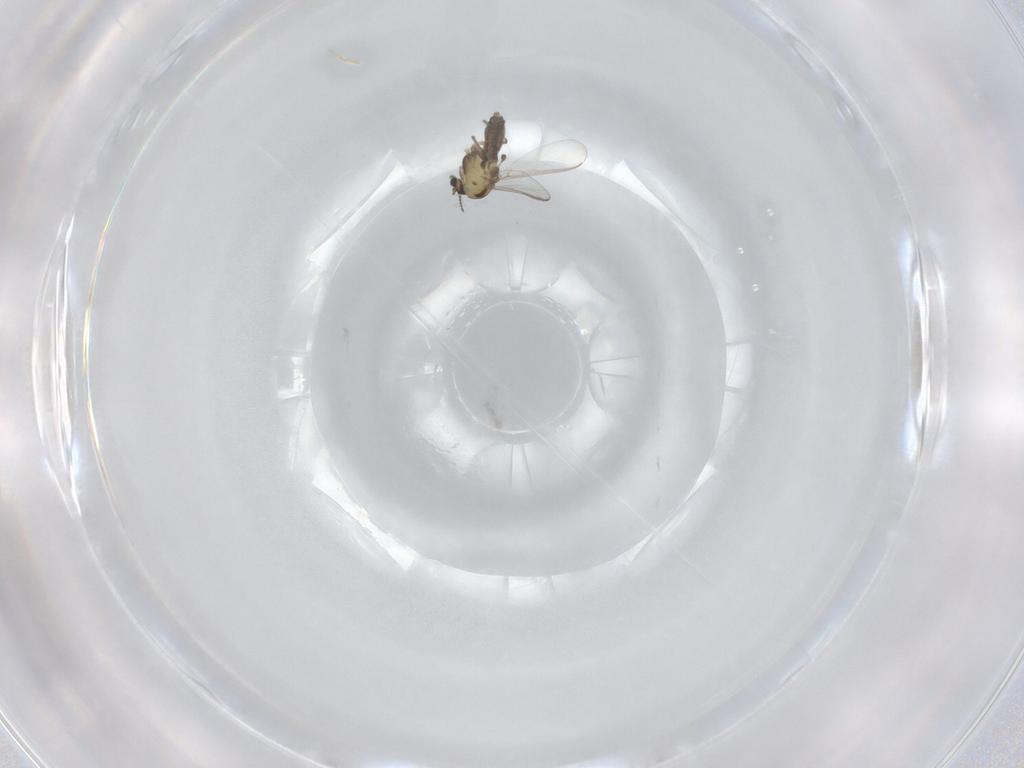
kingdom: Animalia
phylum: Arthropoda
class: Insecta
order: Diptera
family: Chironomidae
